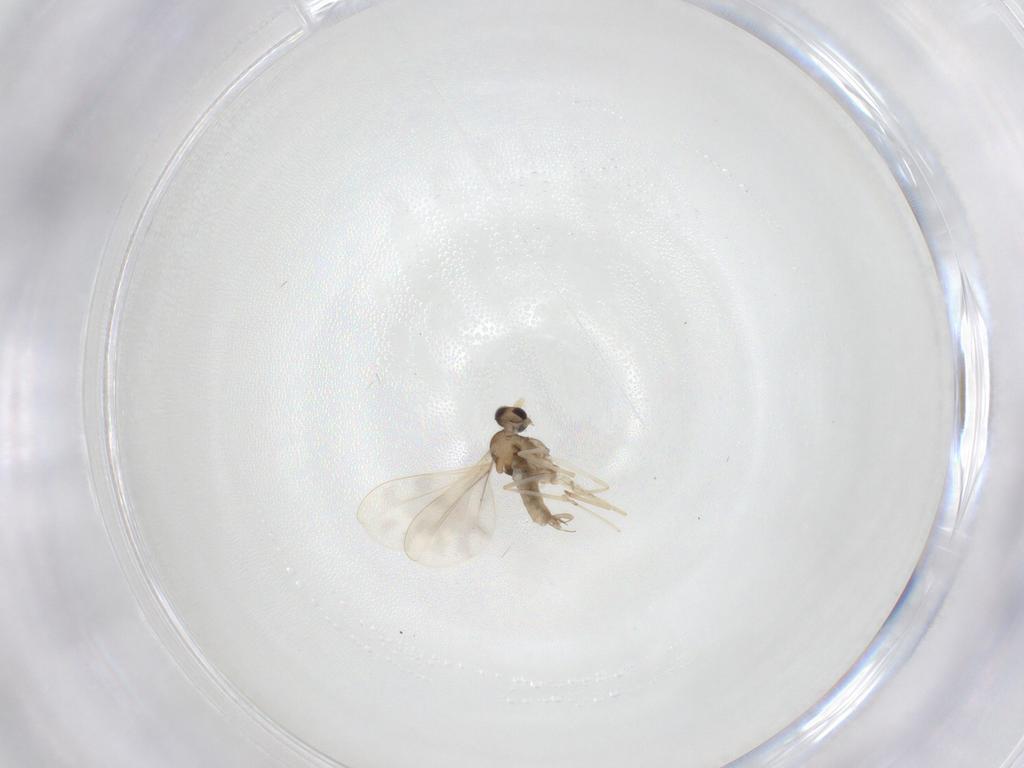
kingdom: Animalia
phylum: Arthropoda
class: Insecta
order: Diptera
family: Cecidomyiidae
